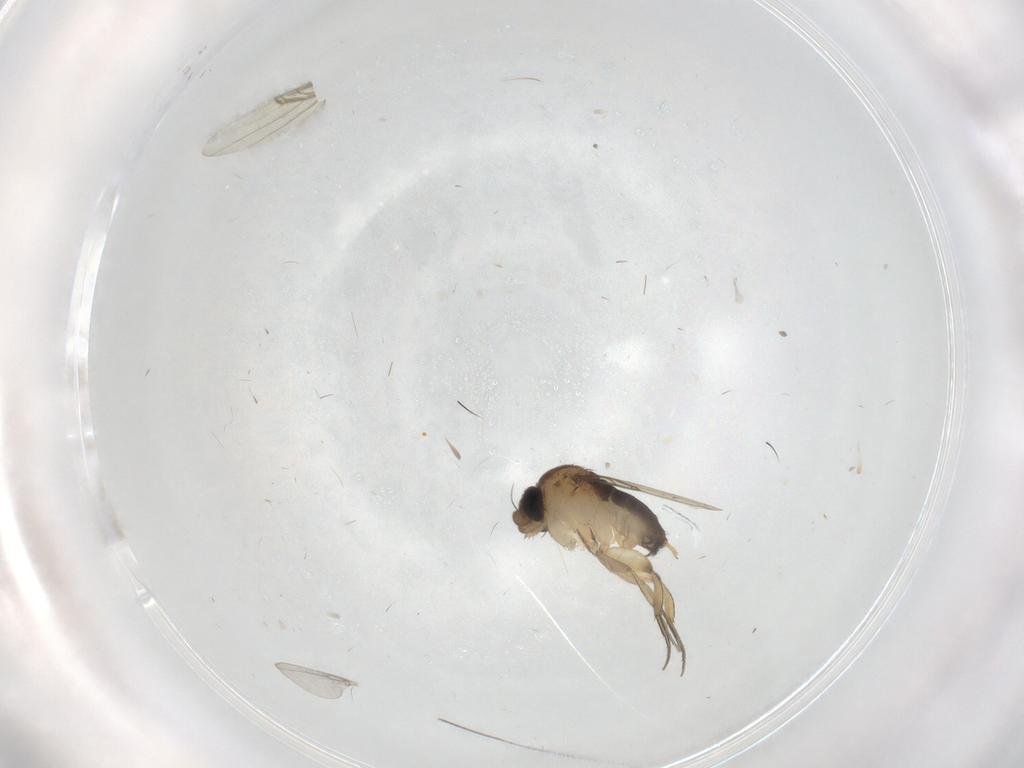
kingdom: Animalia
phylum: Arthropoda
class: Insecta
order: Diptera
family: Phoridae
